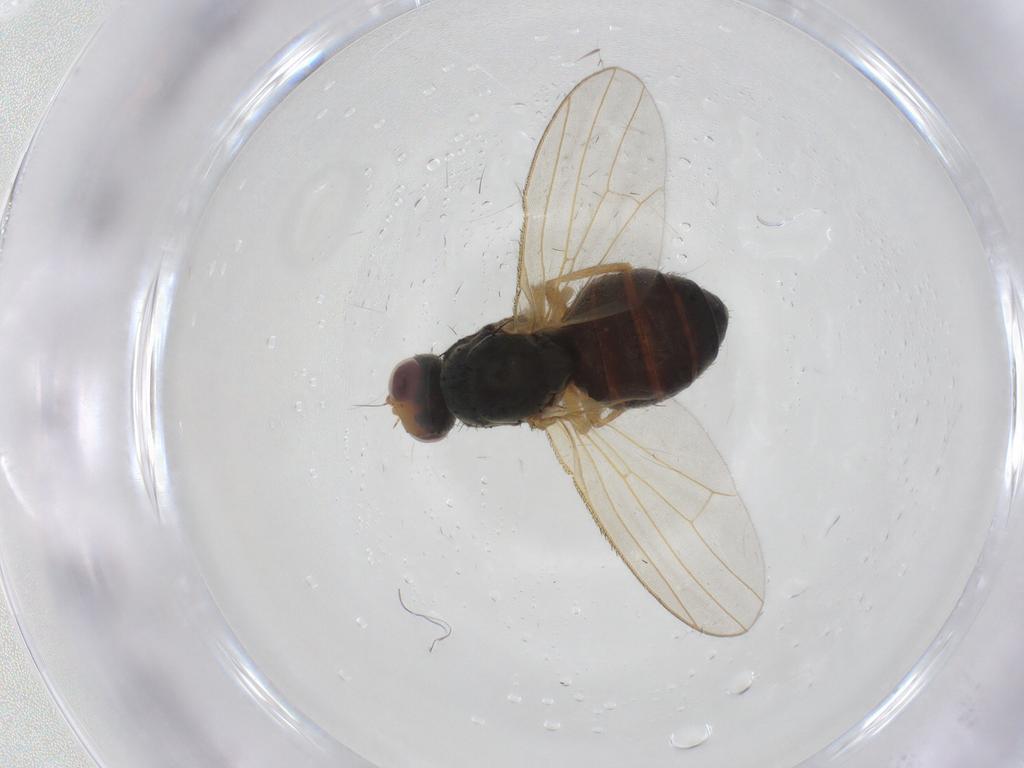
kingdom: Animalia
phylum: Arthropoda
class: Insecta
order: Diptera
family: Heleomyzidae
